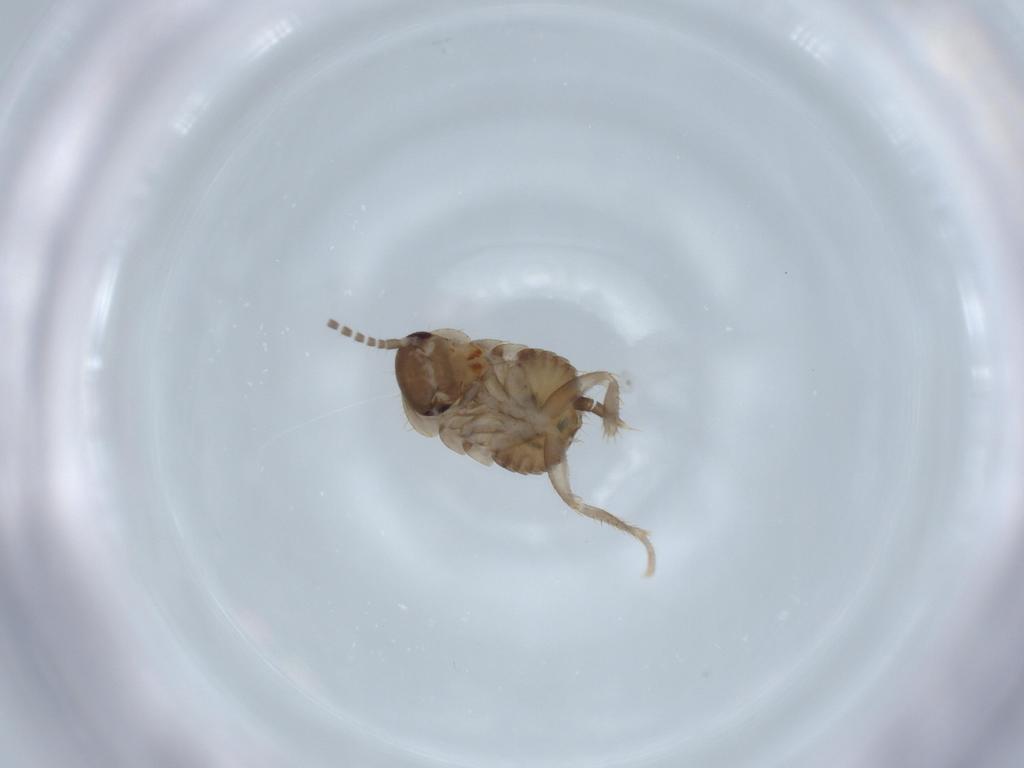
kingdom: Animalia
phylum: Arthropoda
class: Insecta
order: Blattodea
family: Ectobiidae
